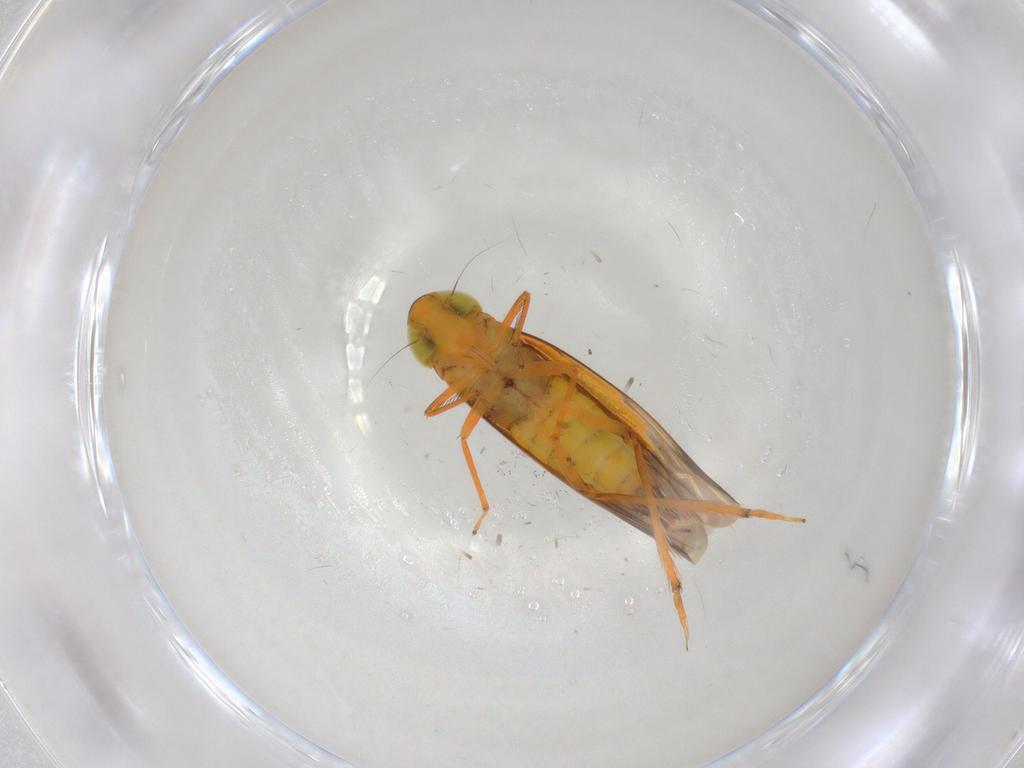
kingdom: Animalia
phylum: Arthropoda
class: Insecta
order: Hemiptera
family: Cicadellidae
